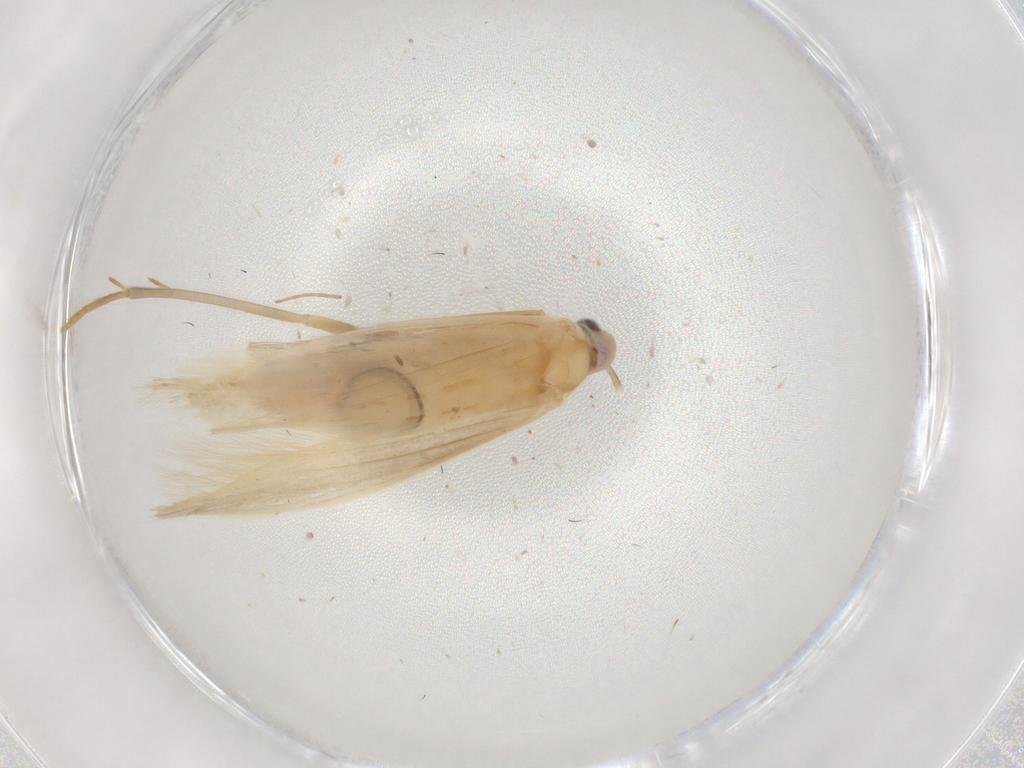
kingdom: Animalia
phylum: Arthropoda
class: Insecta
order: Lepidoptera
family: Xyloryctidae
